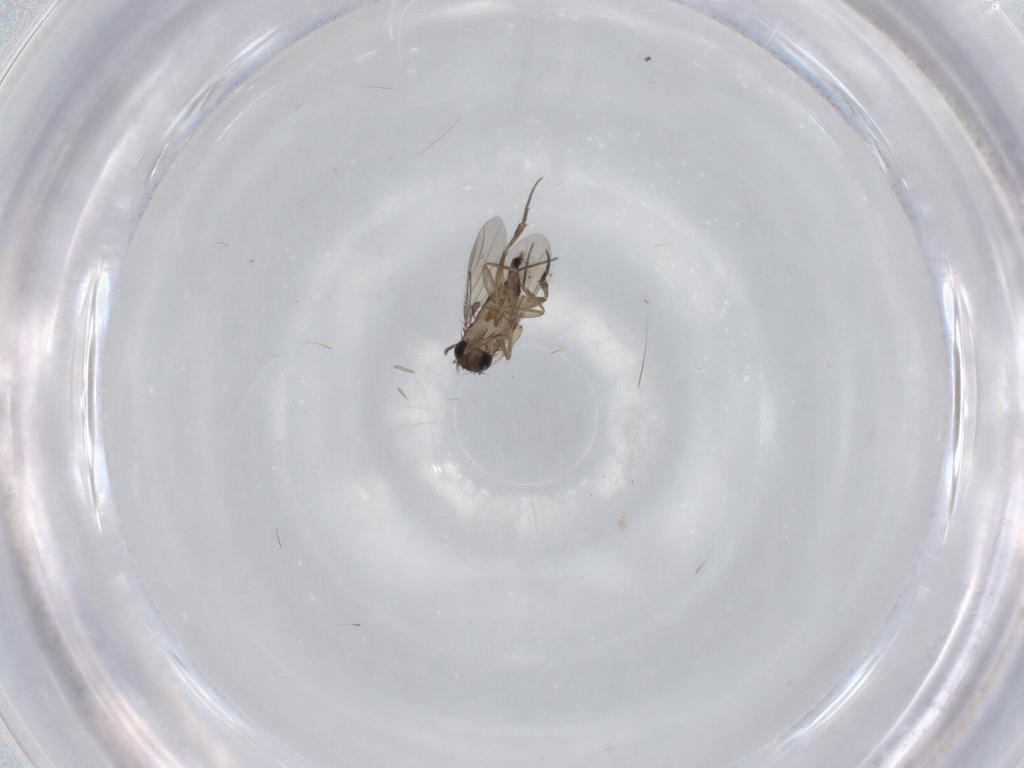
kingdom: Animalia
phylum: Arthropoda
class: Insecta
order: Diptera
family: Phoridae
